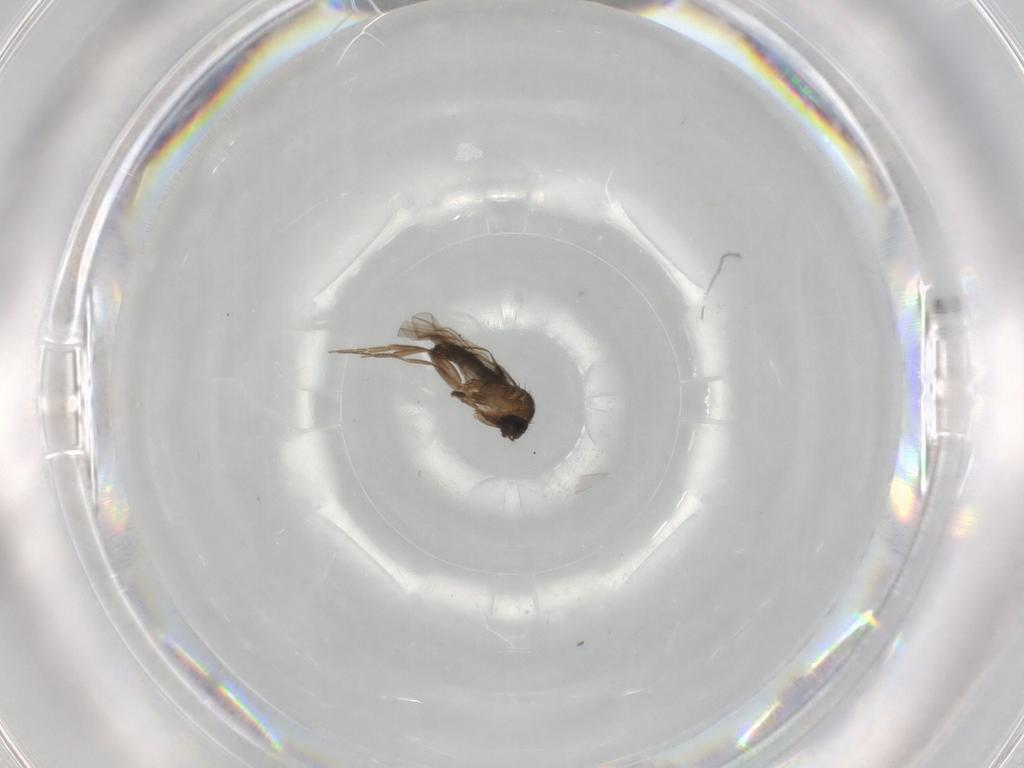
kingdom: Animalia
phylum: Arthropoda
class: Insecta
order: Diptera
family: Phoridae
